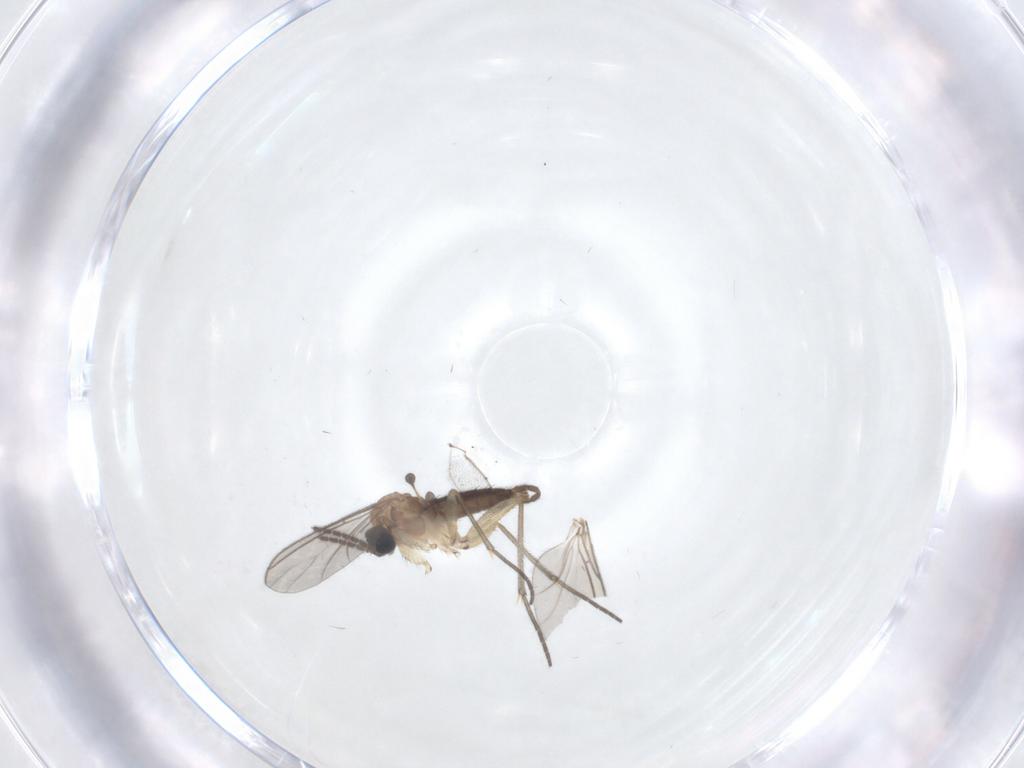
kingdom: Animalia
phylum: Arthropoda
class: Insecta
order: Diptera
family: Sciaridae
